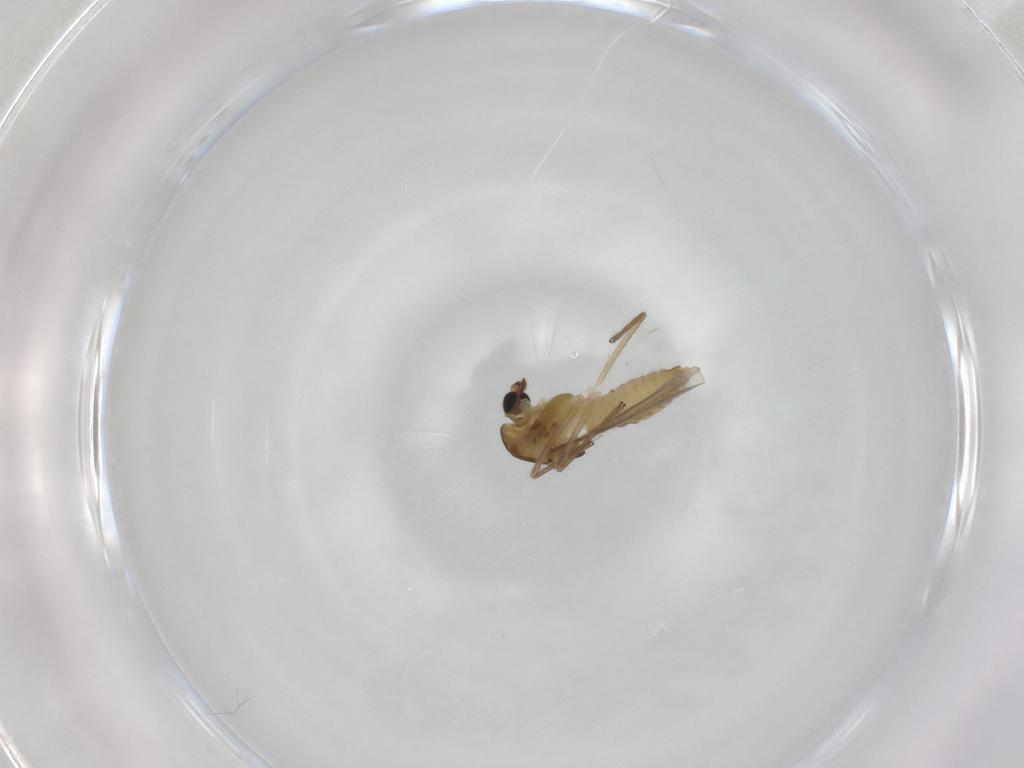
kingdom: Animalia
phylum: Arthropoda
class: Insecta
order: Diptera
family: Chironomidae
